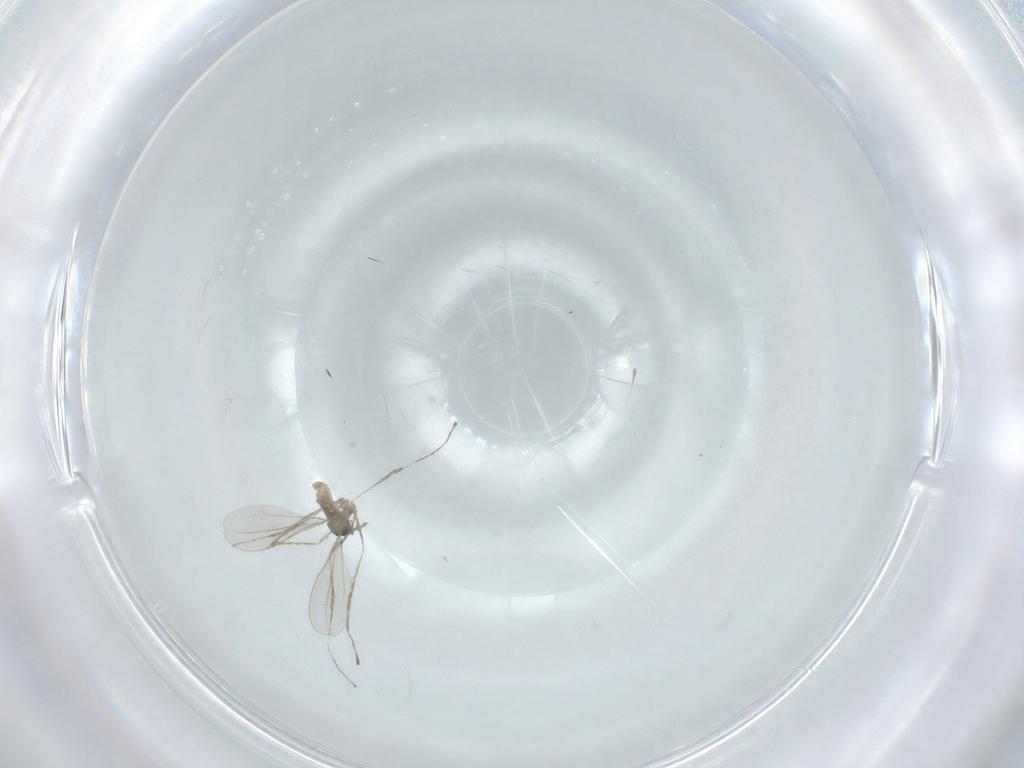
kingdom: Animalia
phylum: Arthropoda
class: Insecta
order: Diptera
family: Cecidomyiidae
